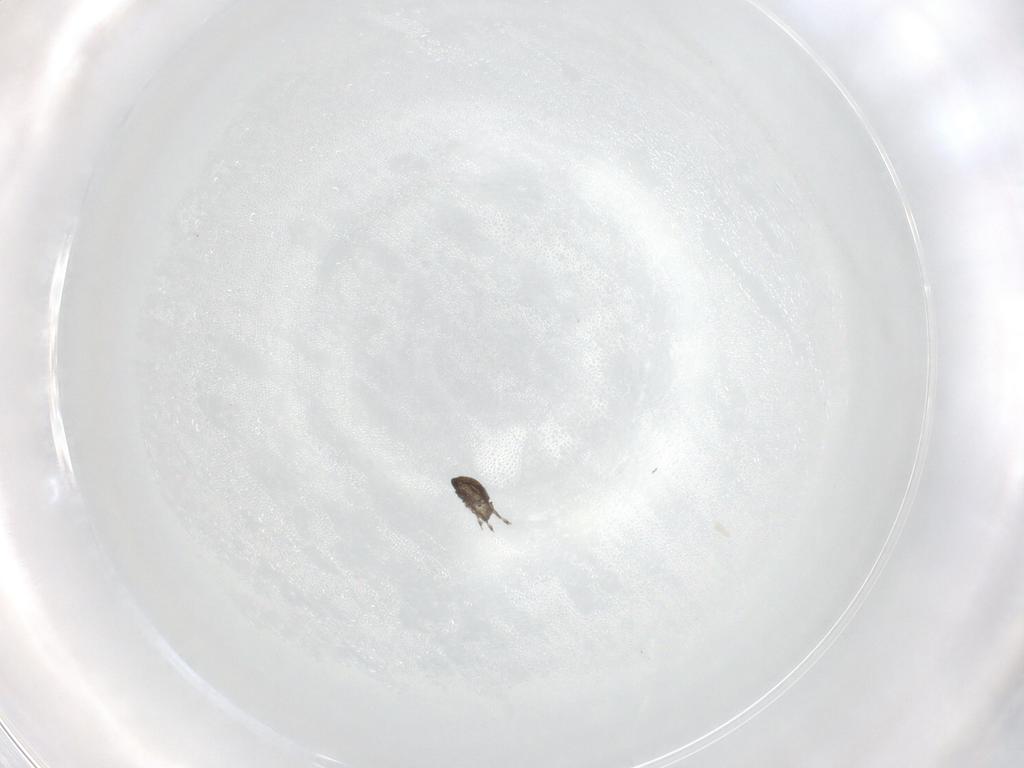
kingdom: Animalia
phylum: Arthropoda
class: Insecta
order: Hymenoptera
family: Torymidae
